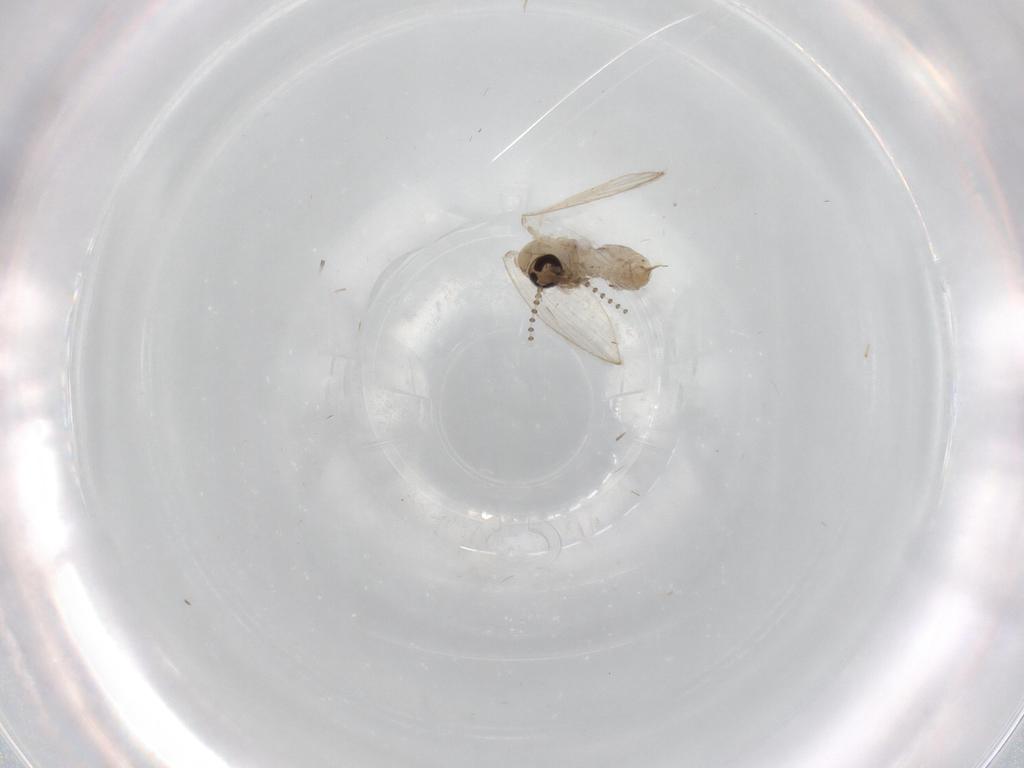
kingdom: Animalia
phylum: Arthropoda
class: Insecta
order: Diptera
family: Psychodidae
